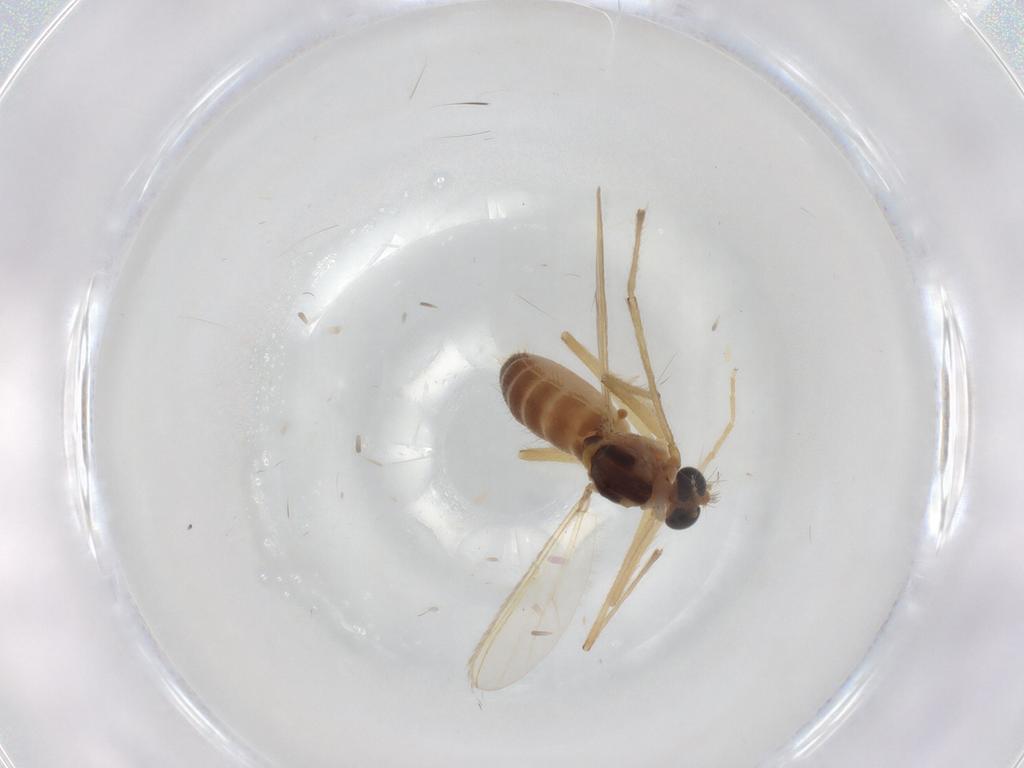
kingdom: Animalia
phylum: Arthropoda
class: Insecta
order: Diptera
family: Chironomidae
